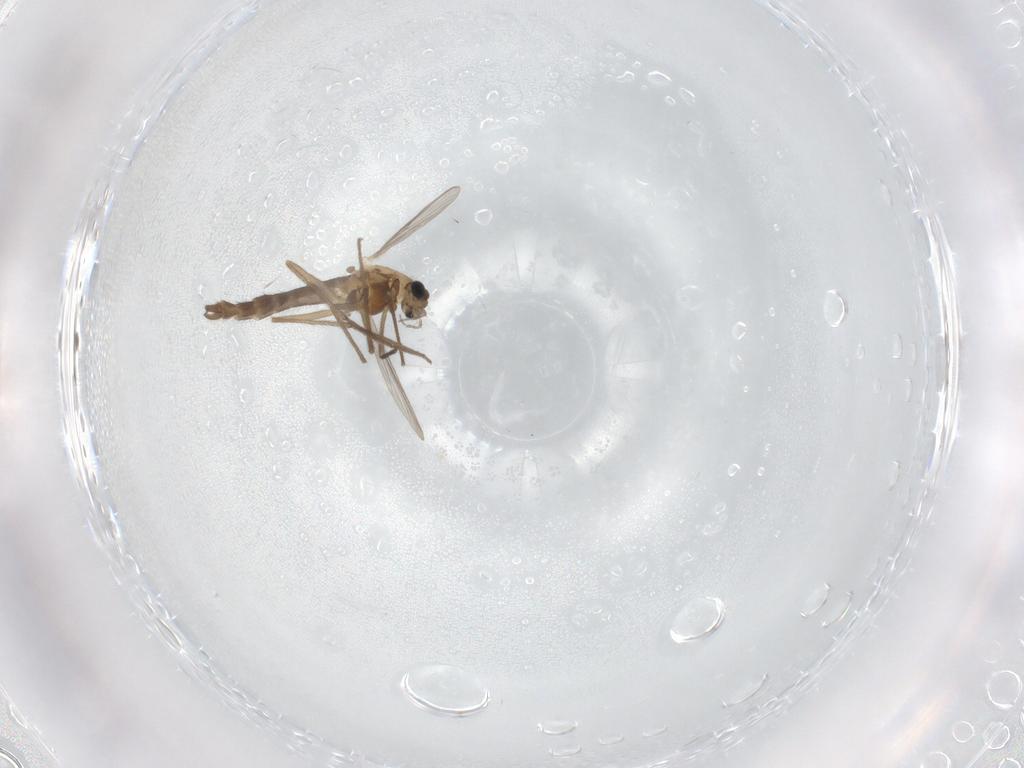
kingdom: Animalia
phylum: Arthropoda
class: Insecta
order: Diptera
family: Chironomidae
